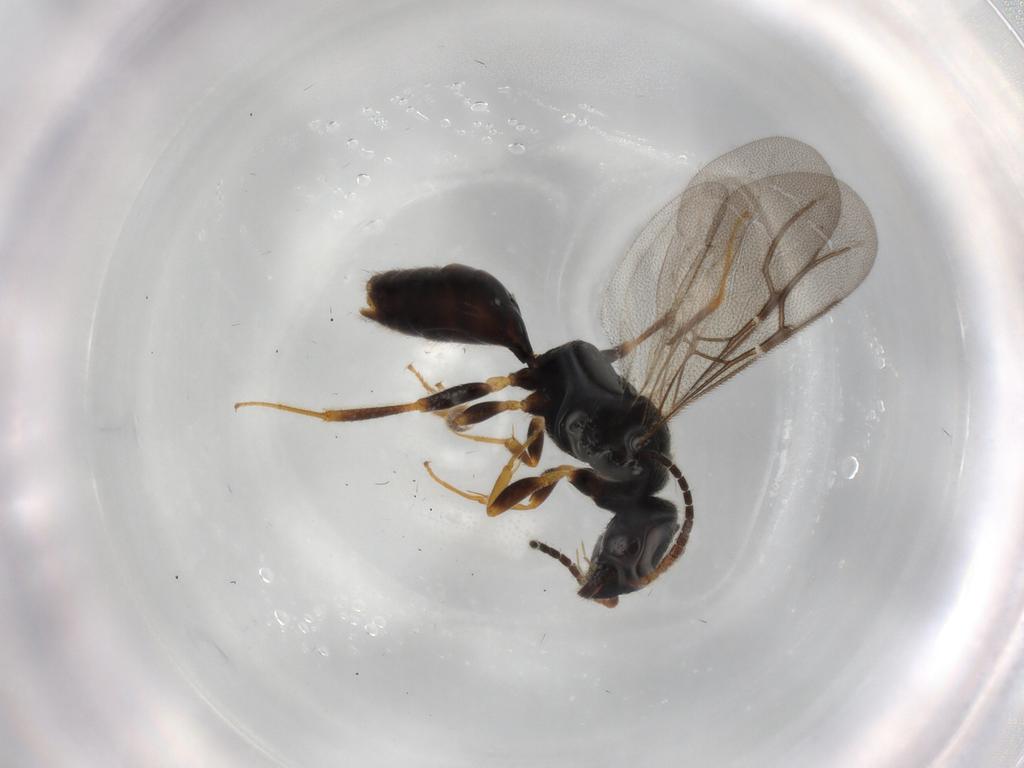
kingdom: Animalia
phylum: Arthropoda
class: Insecta
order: Hymenoptera
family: Bethylidae
